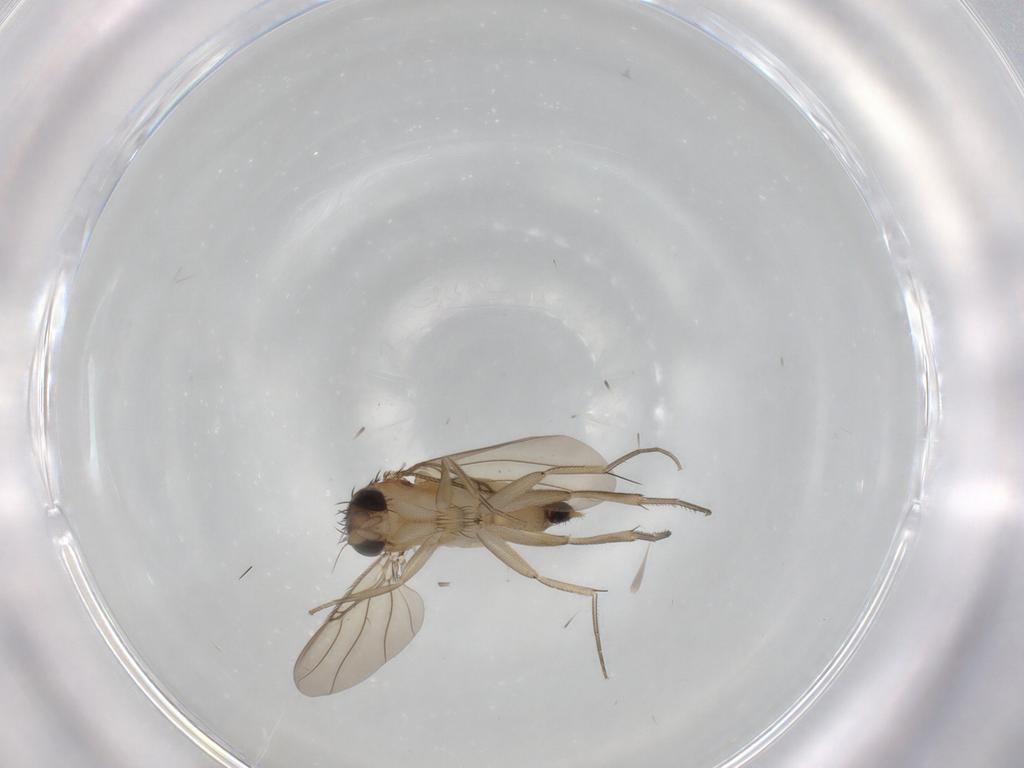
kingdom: Animalia
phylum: Arthropoda
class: Insecta
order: Diptera
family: Phoridae
